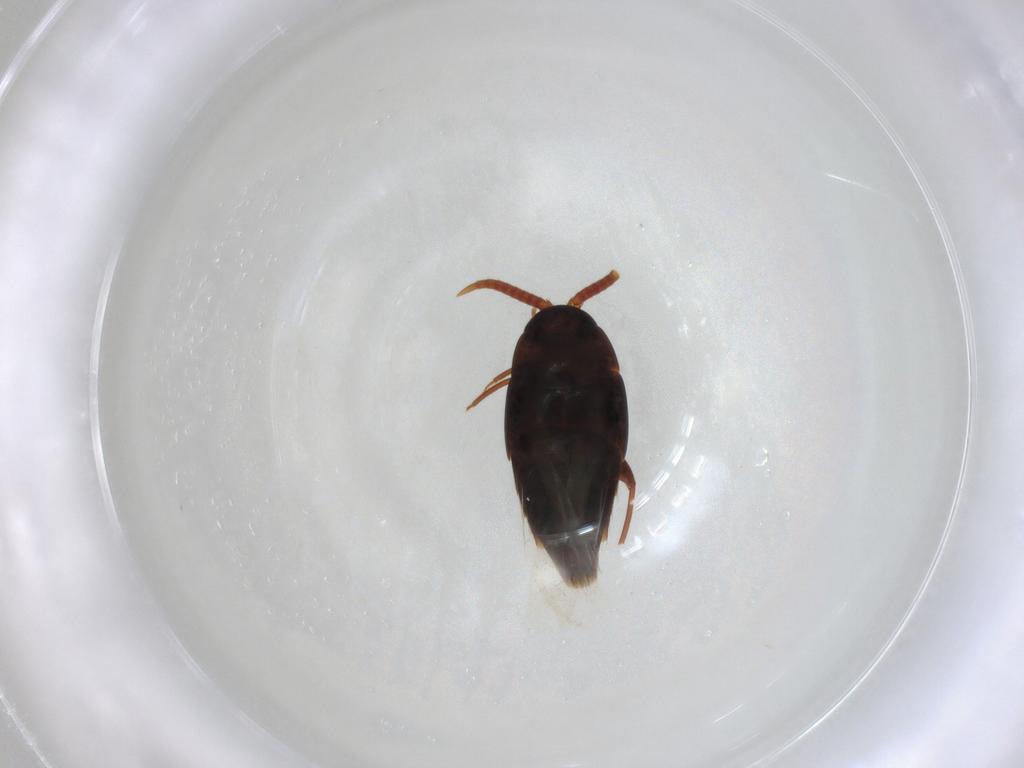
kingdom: Animalia
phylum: Arthropoda
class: Insecta
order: Coleoptera
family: Staphylinidae
